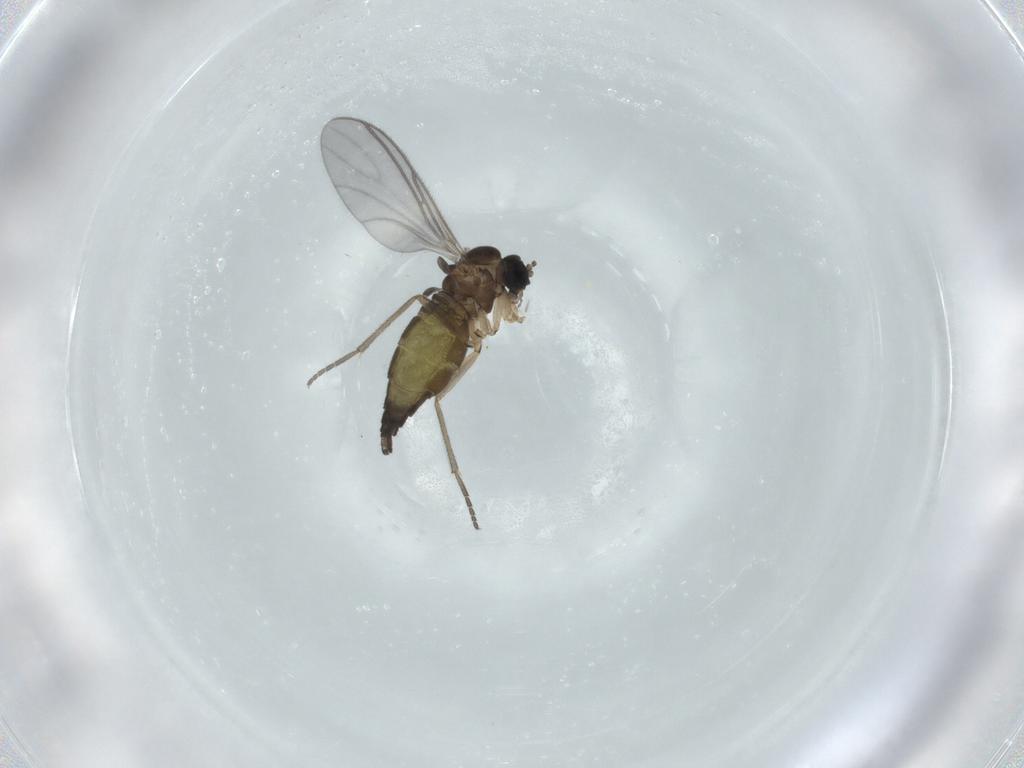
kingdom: Animalia
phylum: Arthropoda
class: Insecta
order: Diptera
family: Sciaridae
